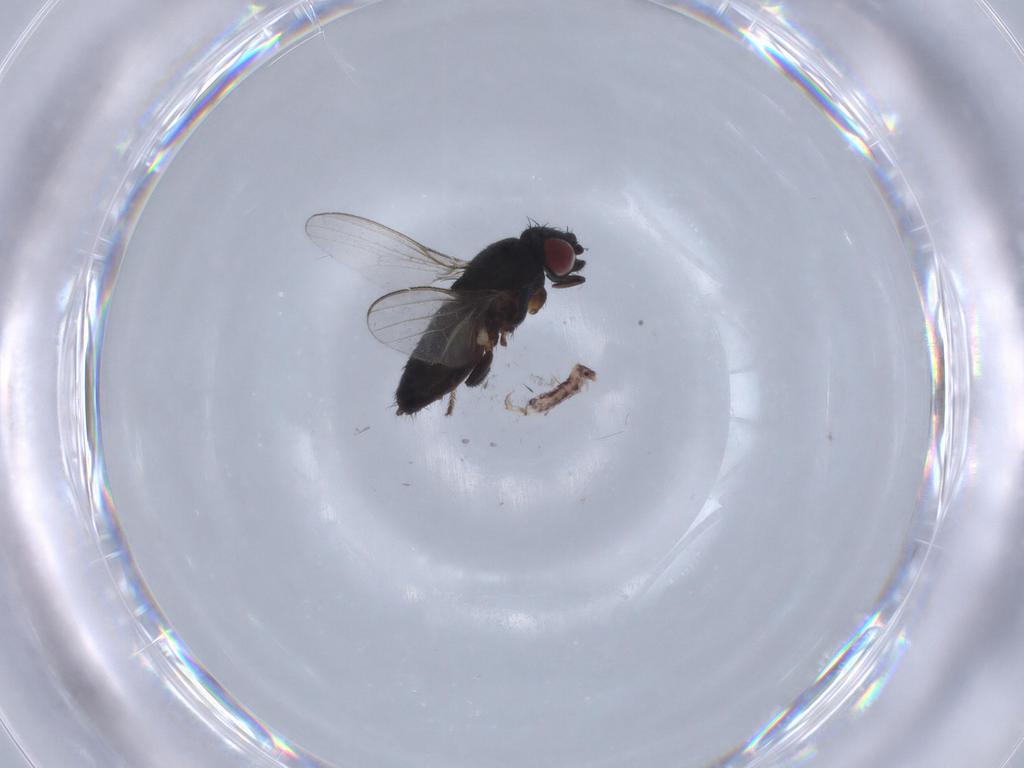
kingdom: Animalia
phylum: Arthropoda
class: Insecta
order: Diptera
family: Milichiidae
